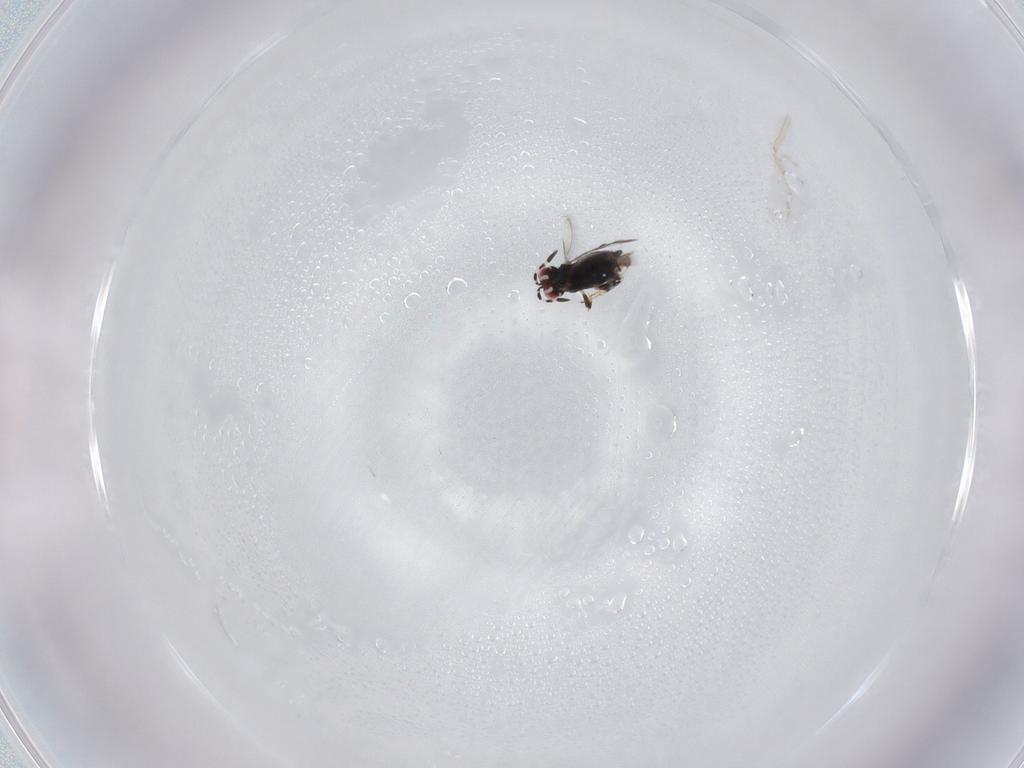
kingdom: Animalia
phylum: Arthropoda
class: Insecta
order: Hymenoptera
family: Azotidae
